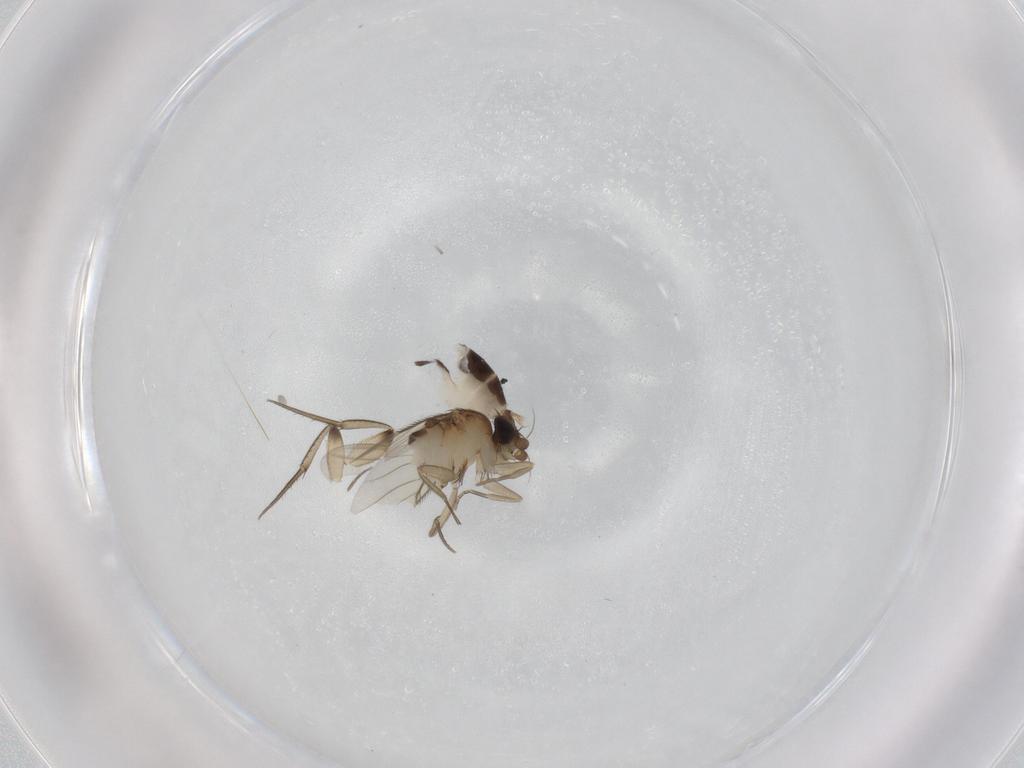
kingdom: Animalia
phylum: Arthropoda
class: Insecta
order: Diptera
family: Phoridae
